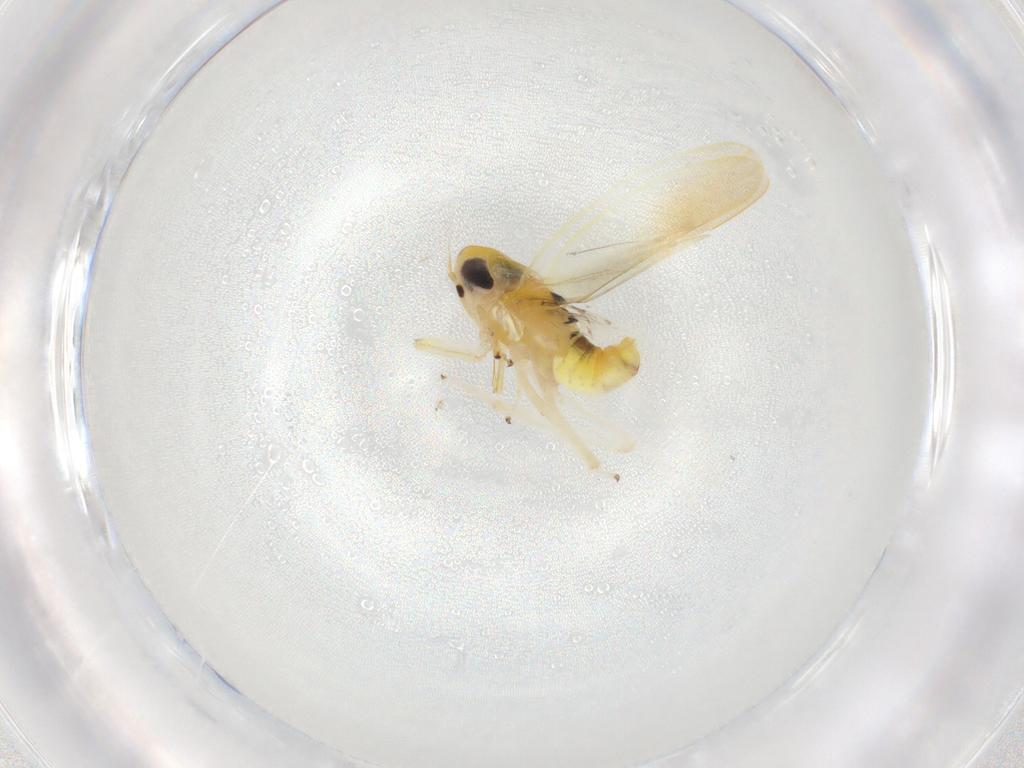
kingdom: Animalia
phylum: Arthropoda
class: Insecta
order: Hemiptera
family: Cicadellidae
